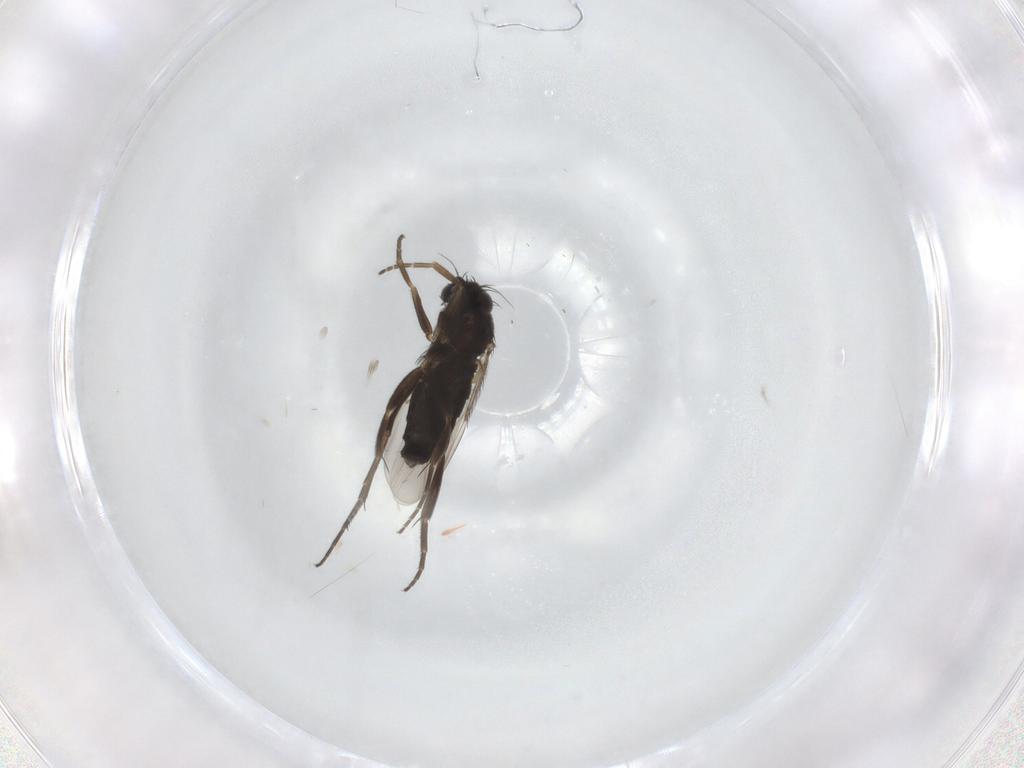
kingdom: Animalia
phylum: Arthropoda
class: Insecta
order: Diptera
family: Phoridae
